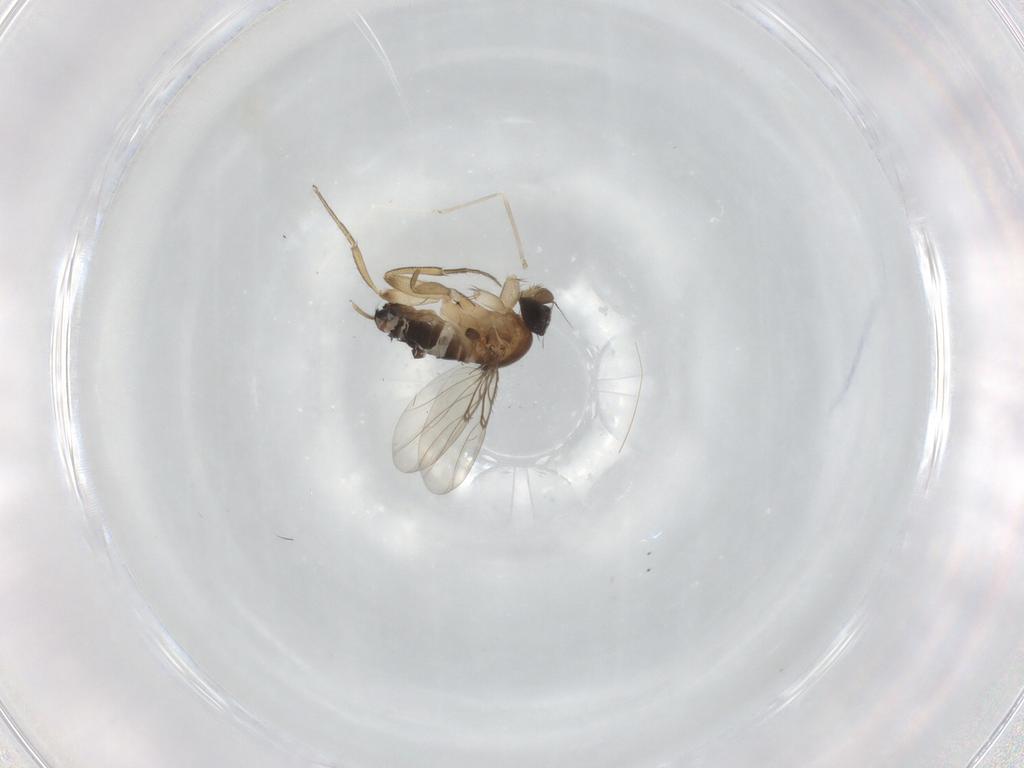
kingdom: Animalia
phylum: Arthropoda
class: Insecta
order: Diptera
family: Phoridae
